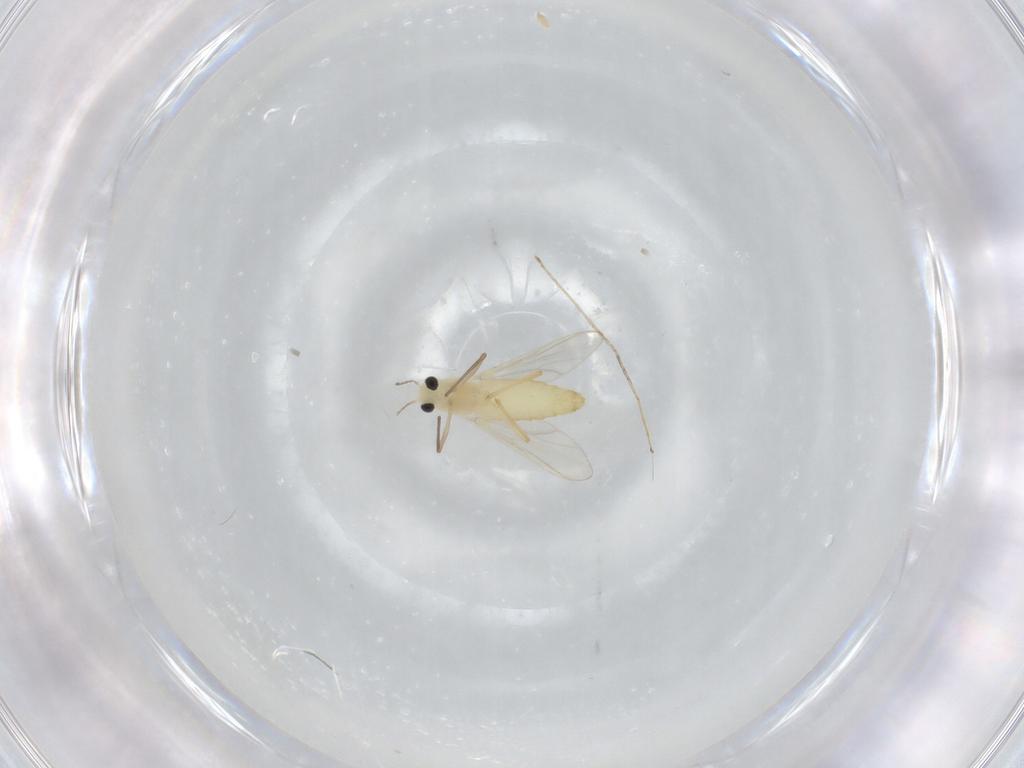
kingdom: Animalia
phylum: Arthropoda
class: Insecta
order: Diptera
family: Chironomidae
